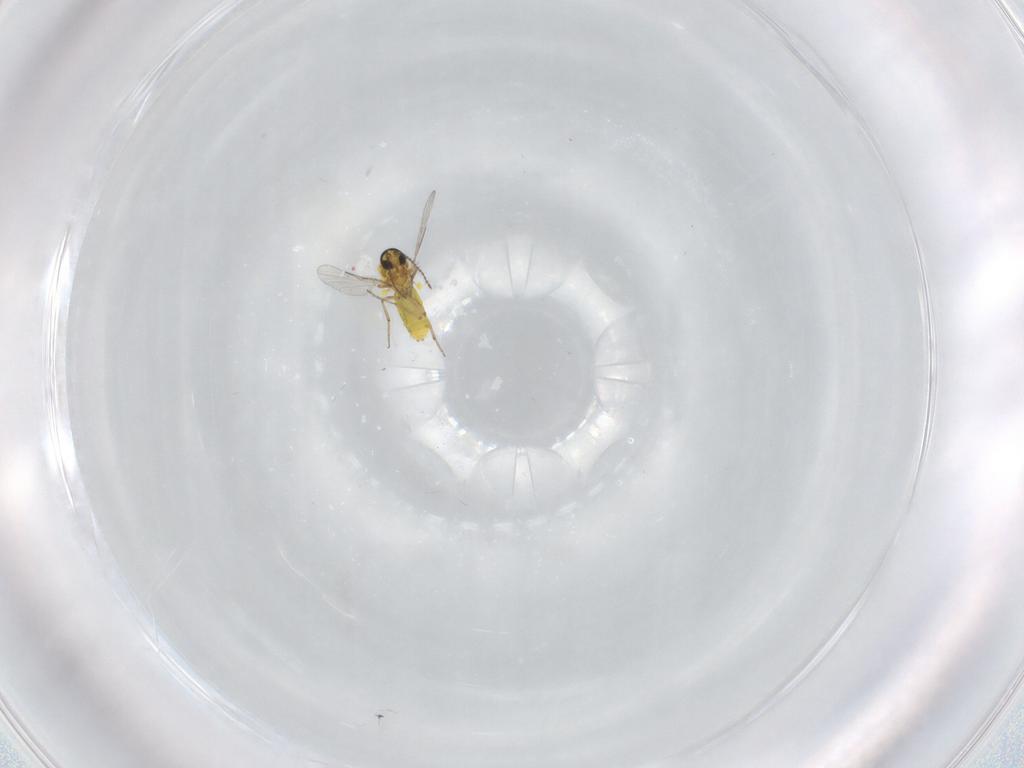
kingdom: Animalia
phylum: Arthropoda
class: Insecta
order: Diptera
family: Ceratopogonidae
